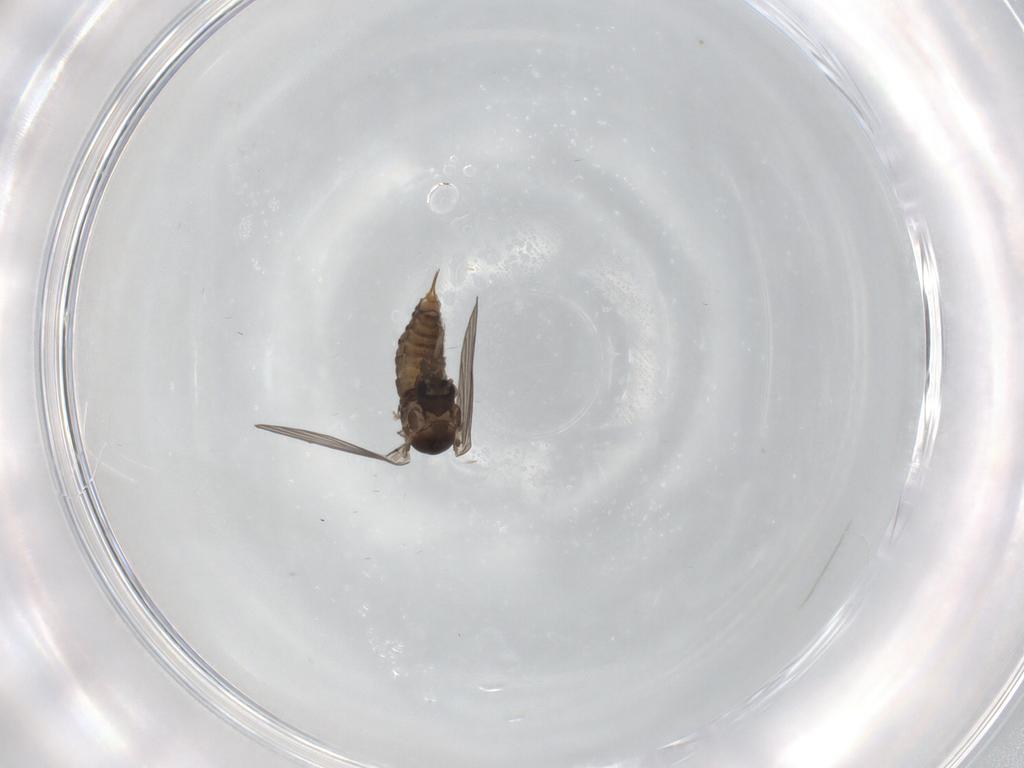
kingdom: Animalia
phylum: Arthropoda
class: Insecta
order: Diptera
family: Psychodidae
